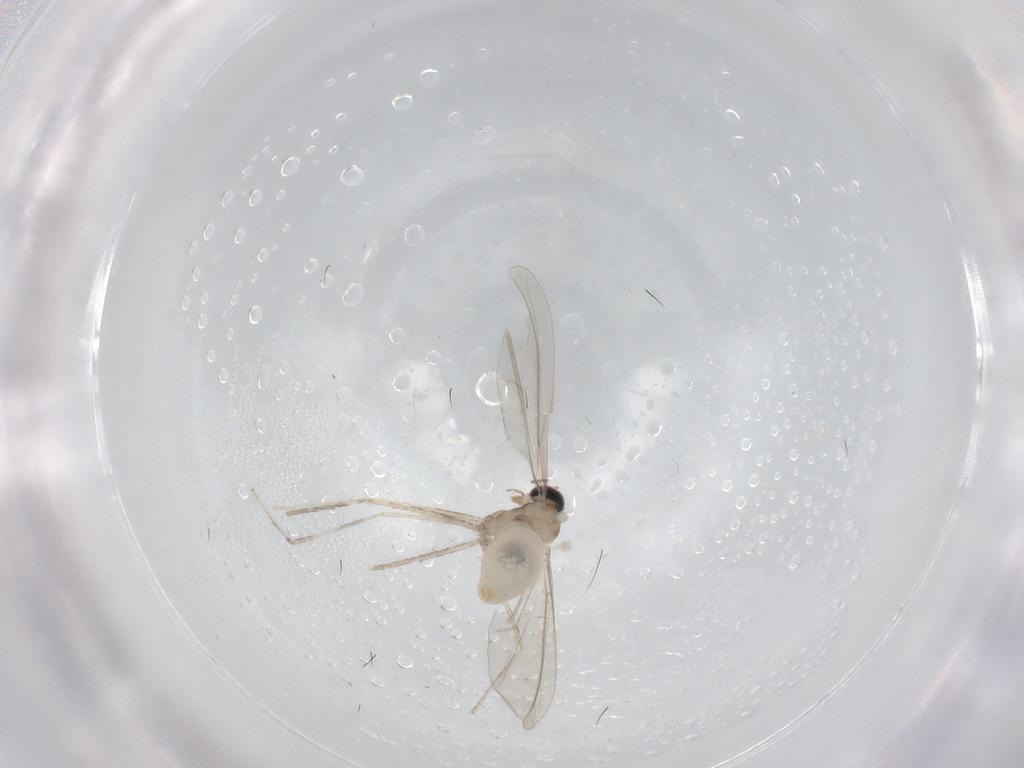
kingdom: Animalia
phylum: Arthropoda
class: Insecta
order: Diptera
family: Cecidomyiidae
